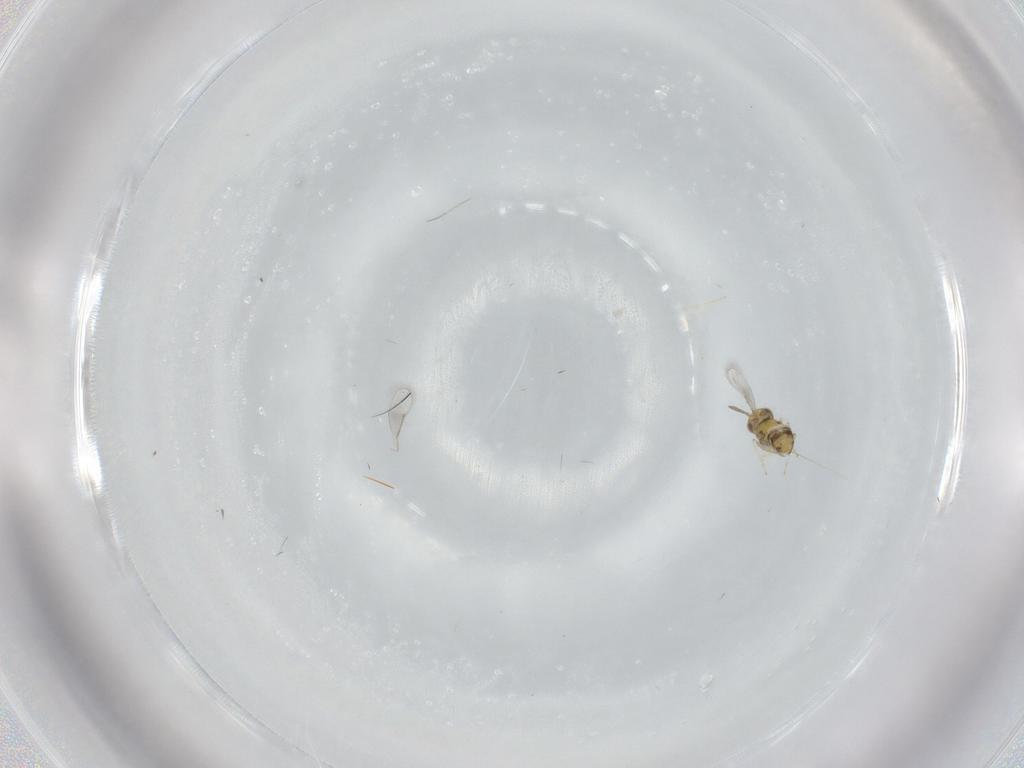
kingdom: Animalia
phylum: Arthropoda
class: Insecta
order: Hymenoptera
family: Aphelinidae
